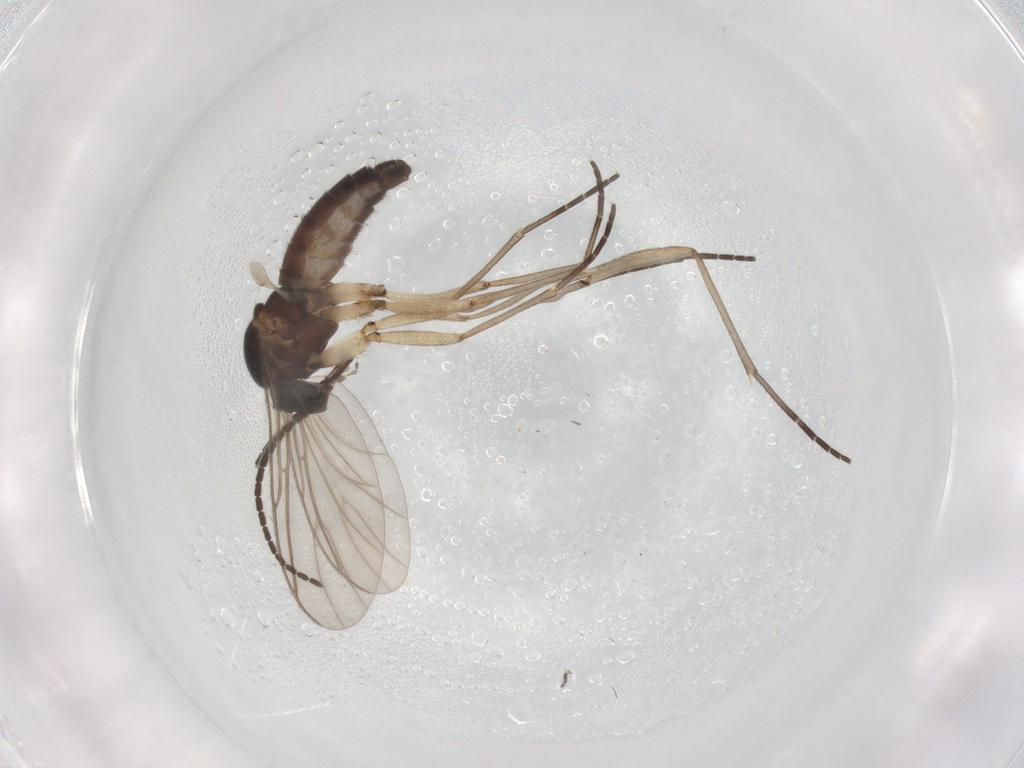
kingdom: Animalia
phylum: Arthropoda
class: Insecta
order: Diptera
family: Sciaridae
